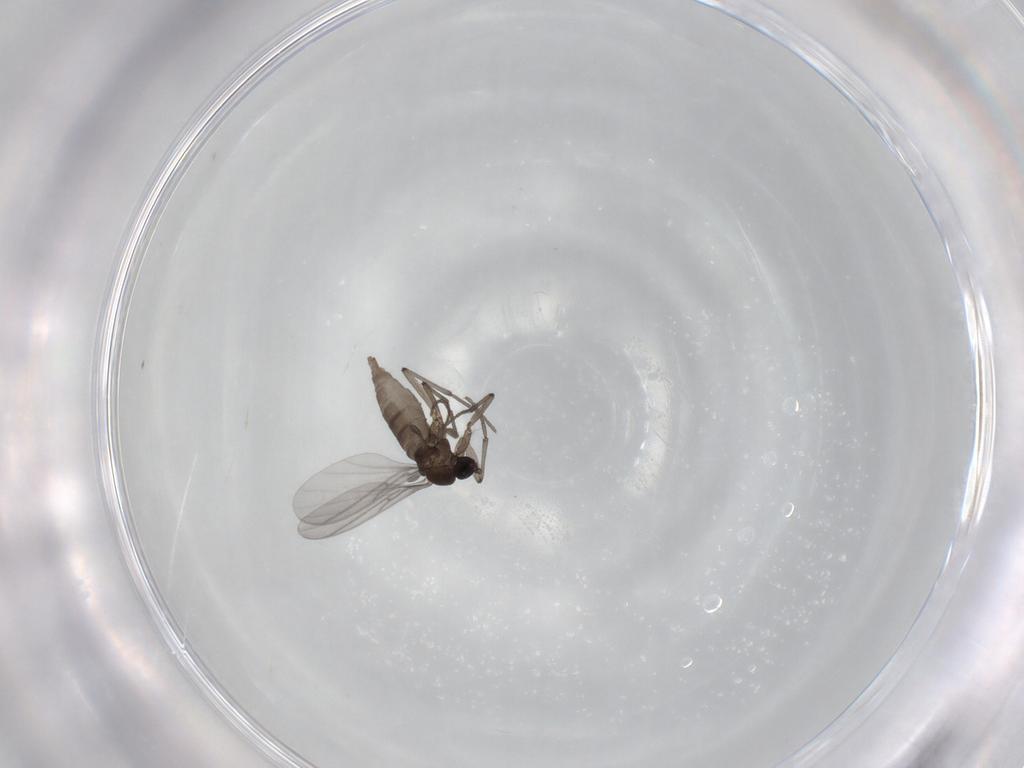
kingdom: Animalia
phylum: Arthropoda
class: Insecta
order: Diptera
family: Sciaridae
